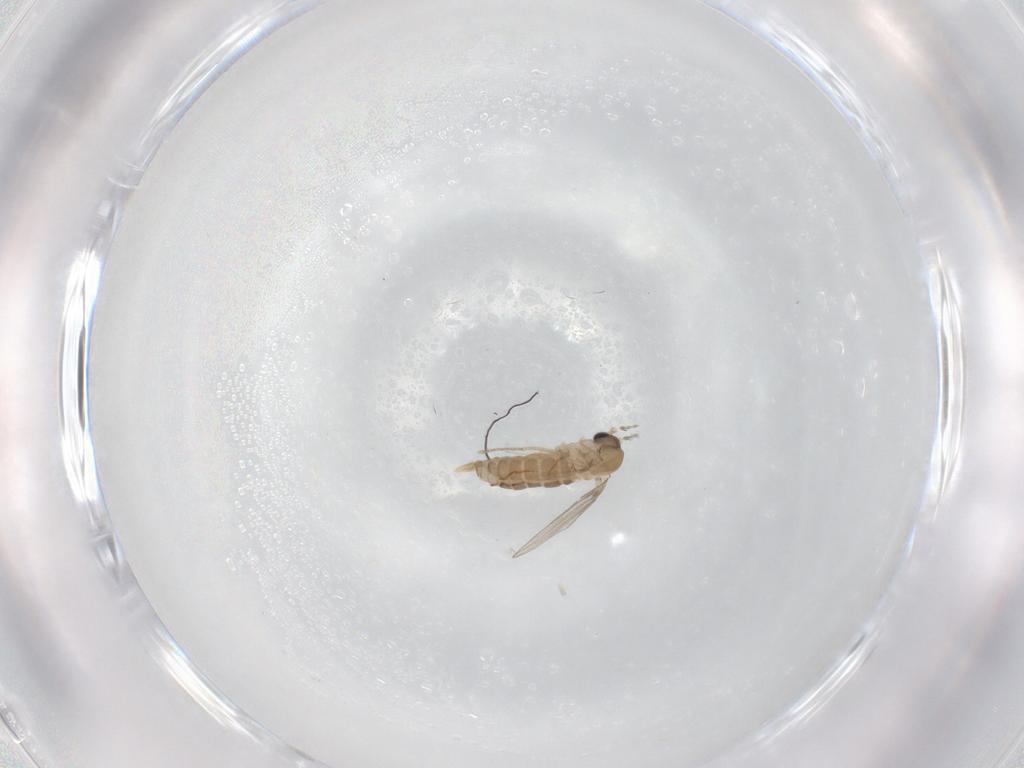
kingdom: Animalia
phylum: Arthropoda
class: Insecta
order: Diptera
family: Psychodidae
